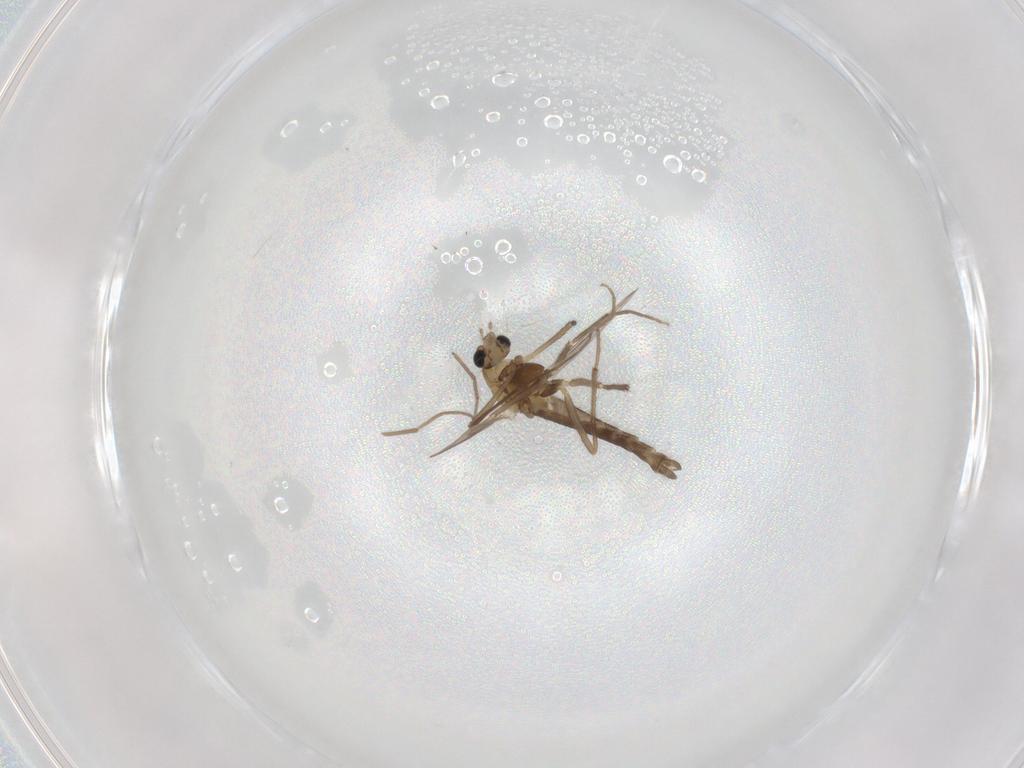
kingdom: Animalia
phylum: Arthropoda
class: Insecta
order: Diptera
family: Chironomidae
